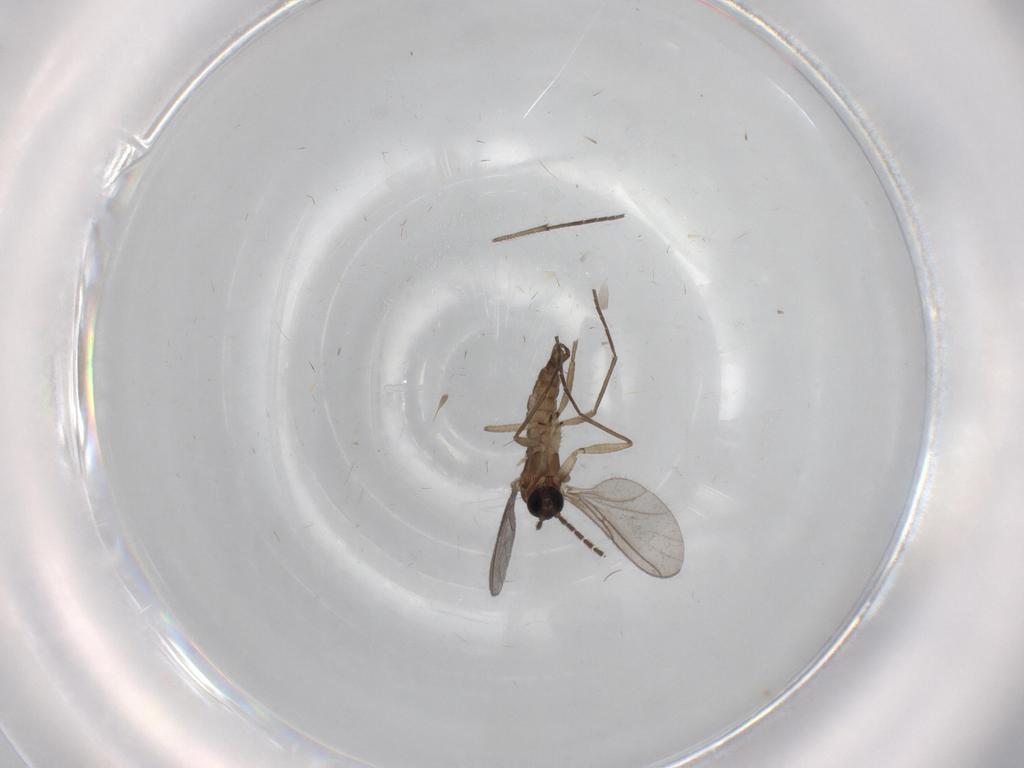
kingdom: Animalia
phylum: Arthropoda
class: Insecta
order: Diptera
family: Sciaridae
